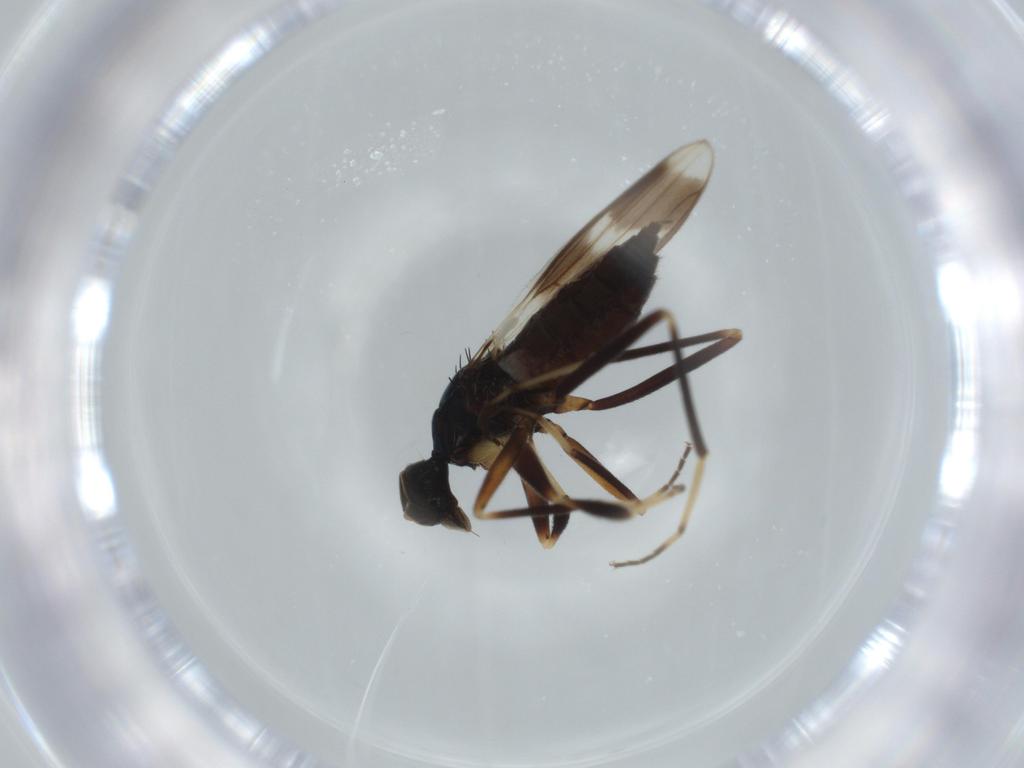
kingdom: Animalia
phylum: Arthropoda
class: Insecta
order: Diptera
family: Hybotidae
